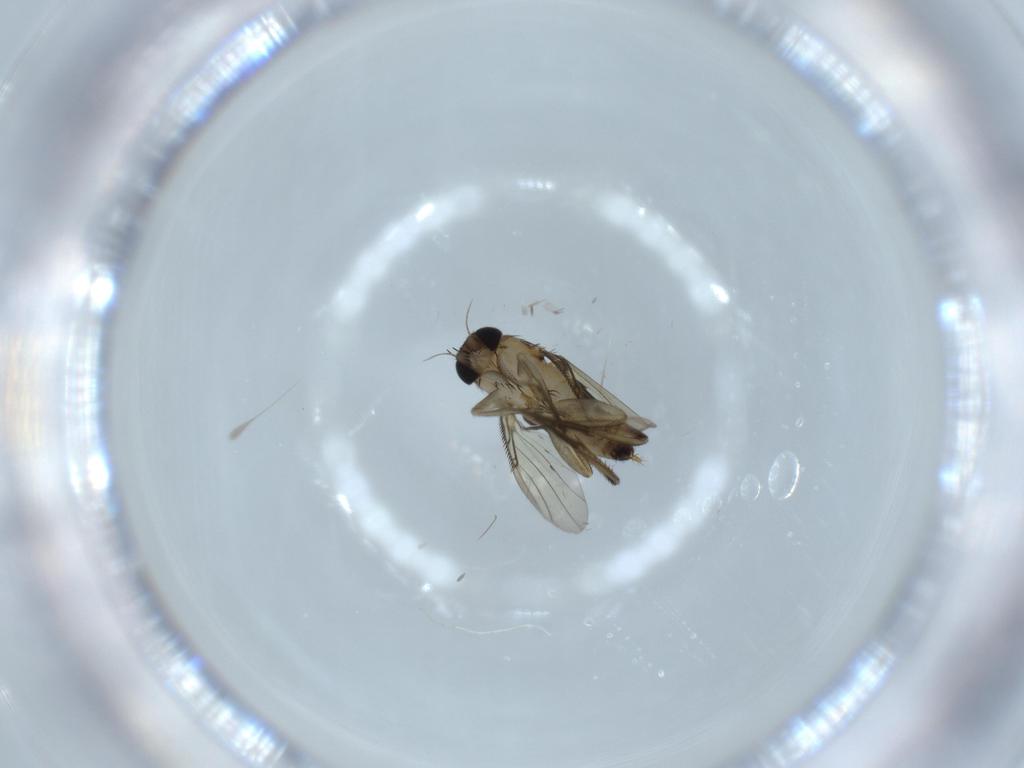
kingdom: Animalia
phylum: Arthropoda
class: Insecta
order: Diptera
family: Phoridae
